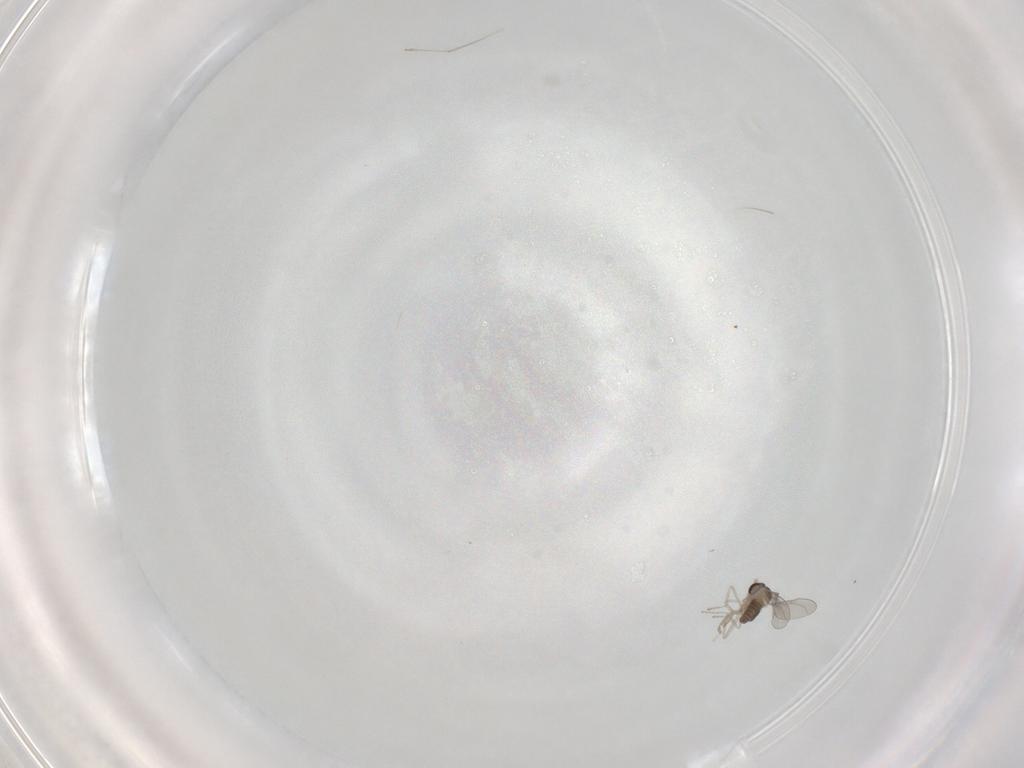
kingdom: Animalia
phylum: Arthropoda
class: Insecta
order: Diptera
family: Cecidomyiidae
